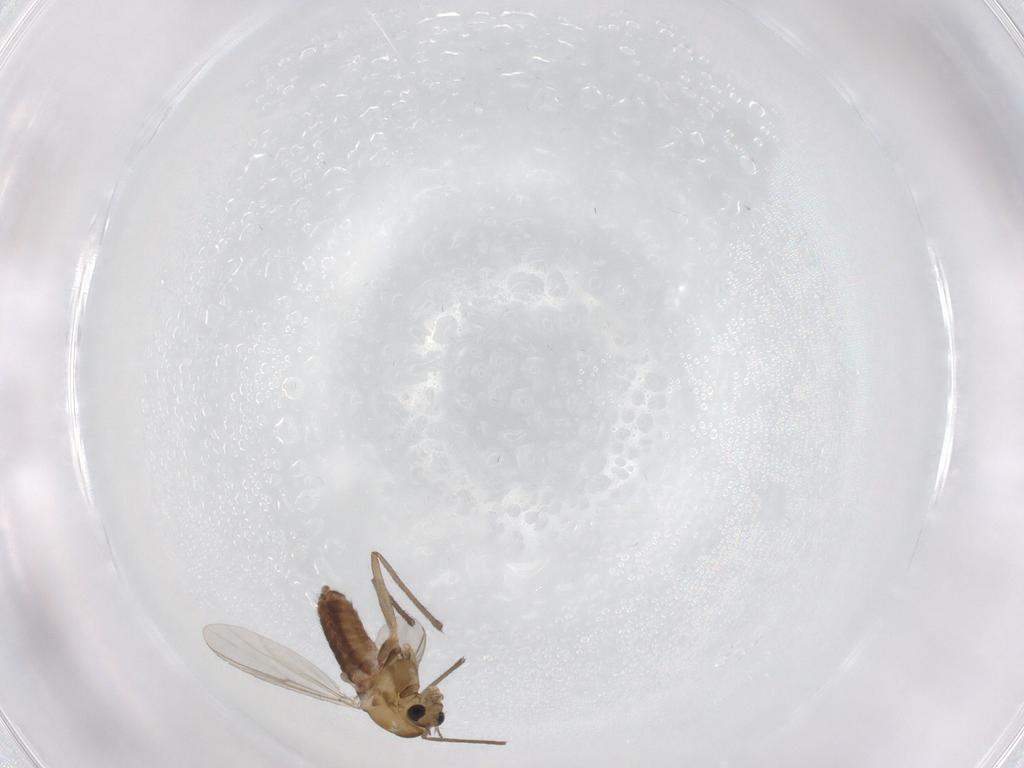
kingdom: Animalia
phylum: Arthropoda
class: Insecta
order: Diptera
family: Chironomidae
